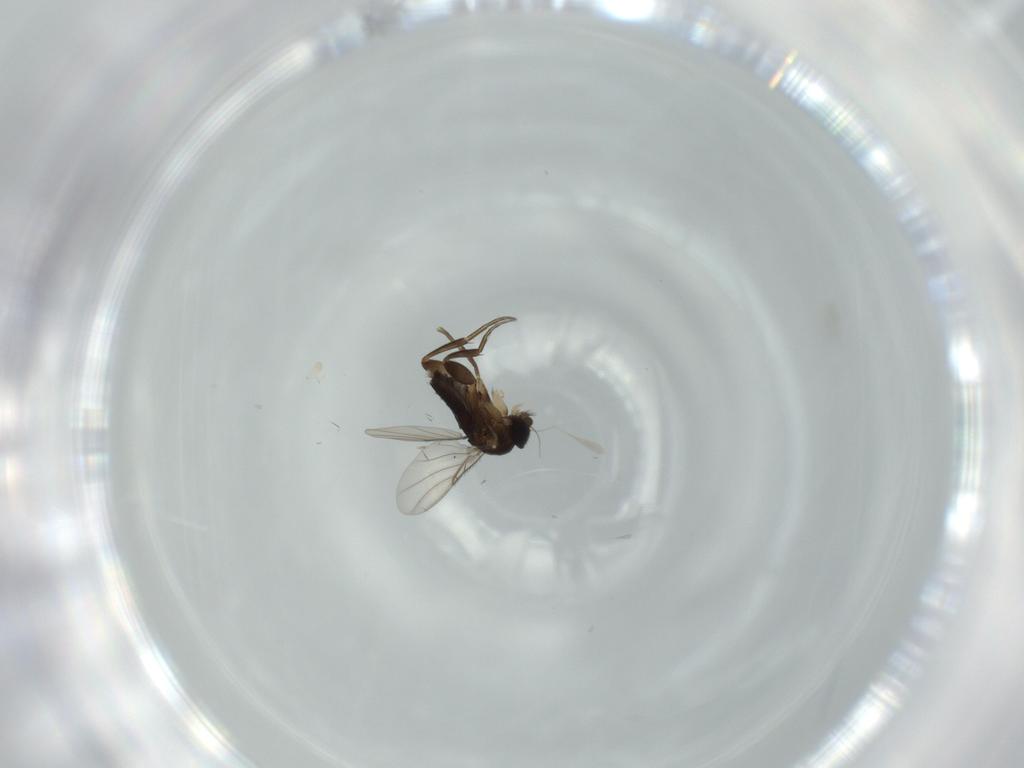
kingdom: Animalia
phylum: Arthropoda
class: Insecta
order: Diptera
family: Phoridae
